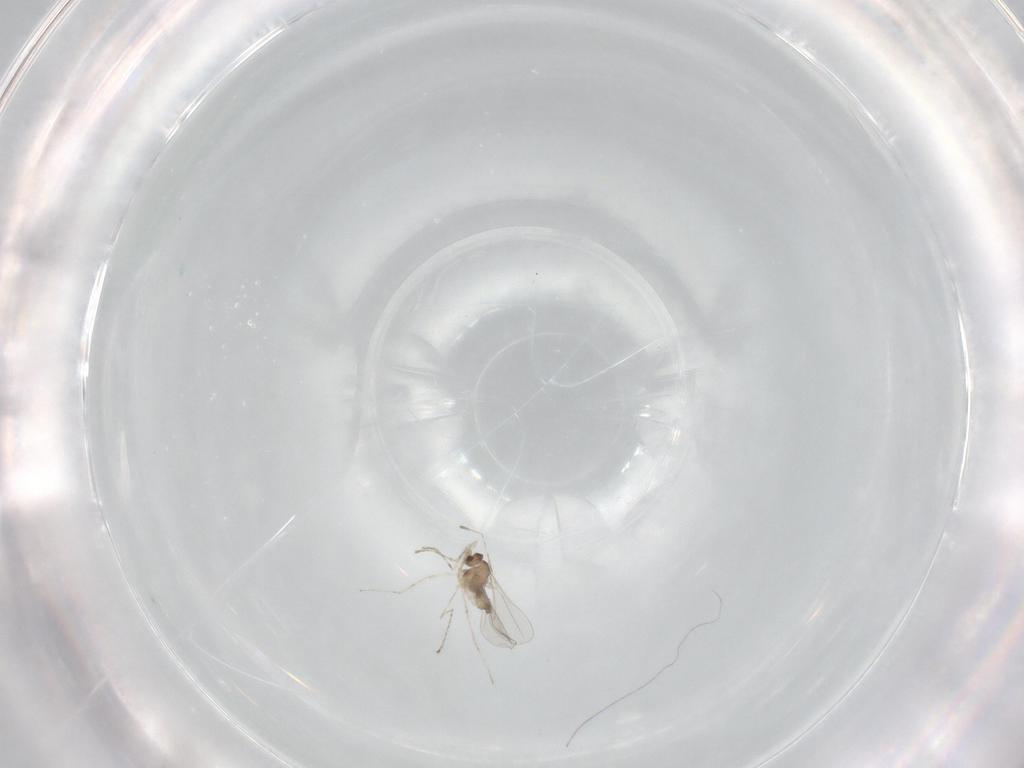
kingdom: Animalia
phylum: Arthropoda
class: Insecta
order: Diptera
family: Cecidomyiidae
